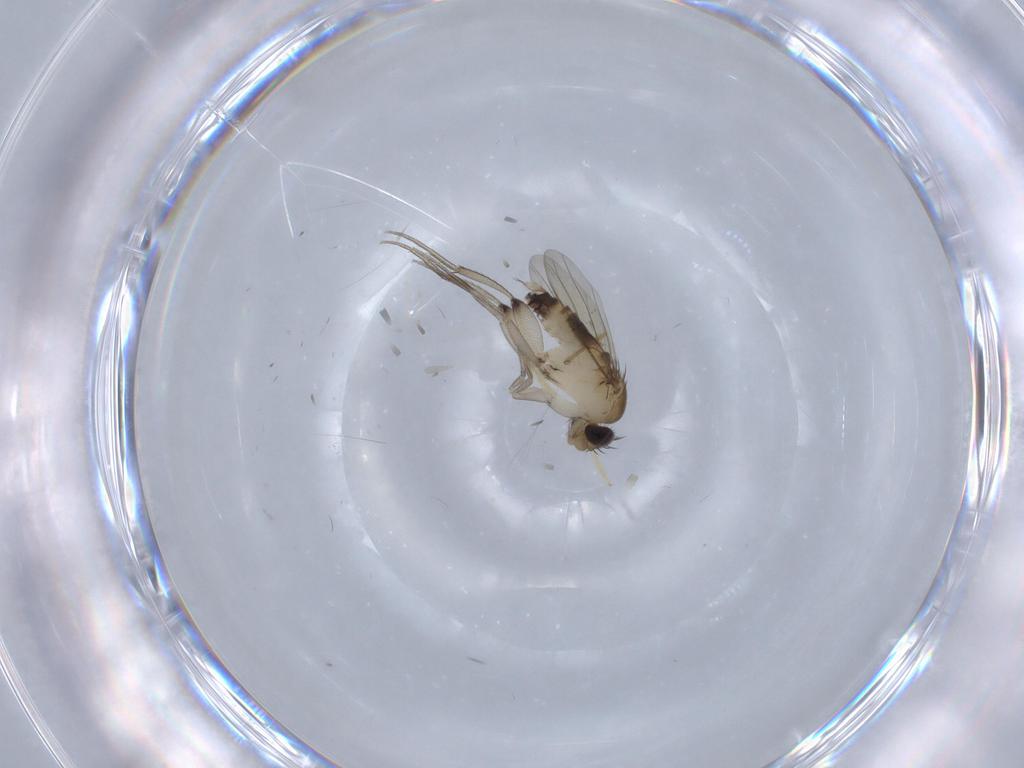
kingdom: Animalia
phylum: Arthropoda
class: Insecta
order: Diptera
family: Phoridae
